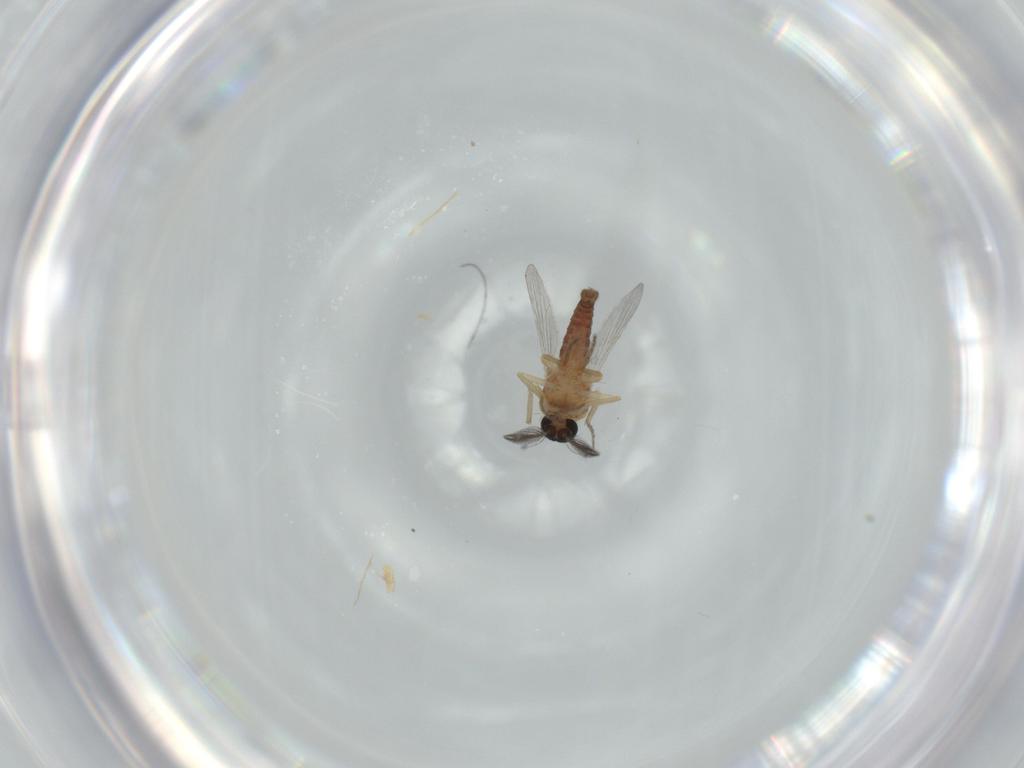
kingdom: Animalia
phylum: Arthropoda
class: Insecta
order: Diptera
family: Ceratopogonidae
